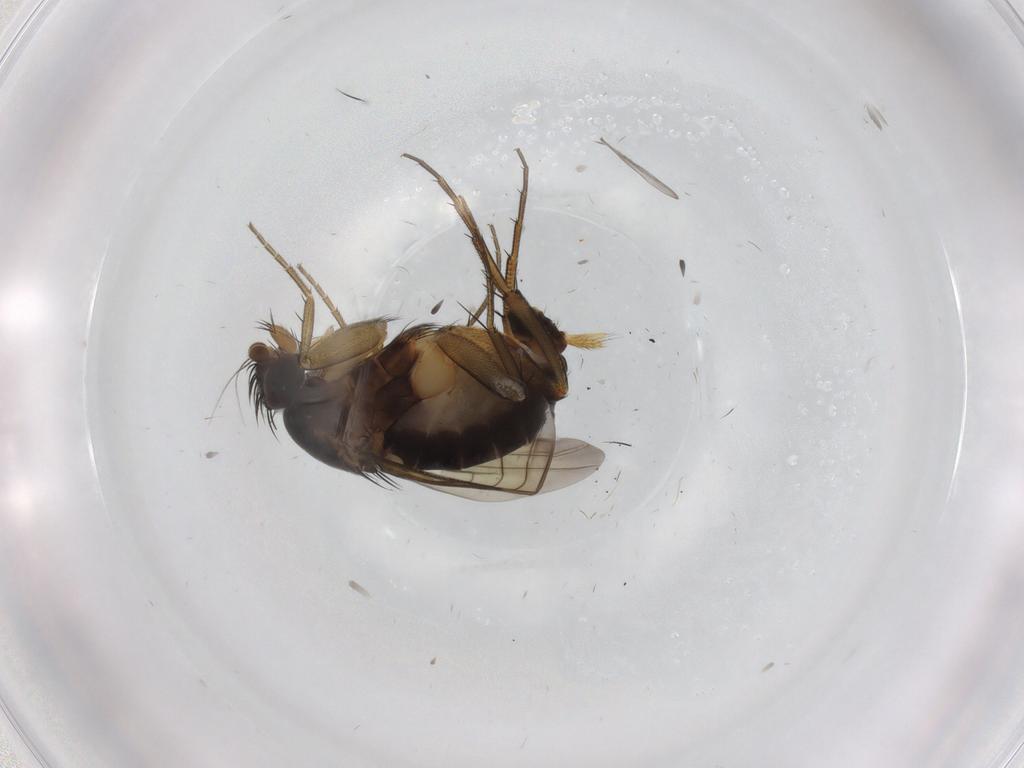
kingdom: Animalia
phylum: Arthropoda
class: Insecta
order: Diptera
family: Phoridae
